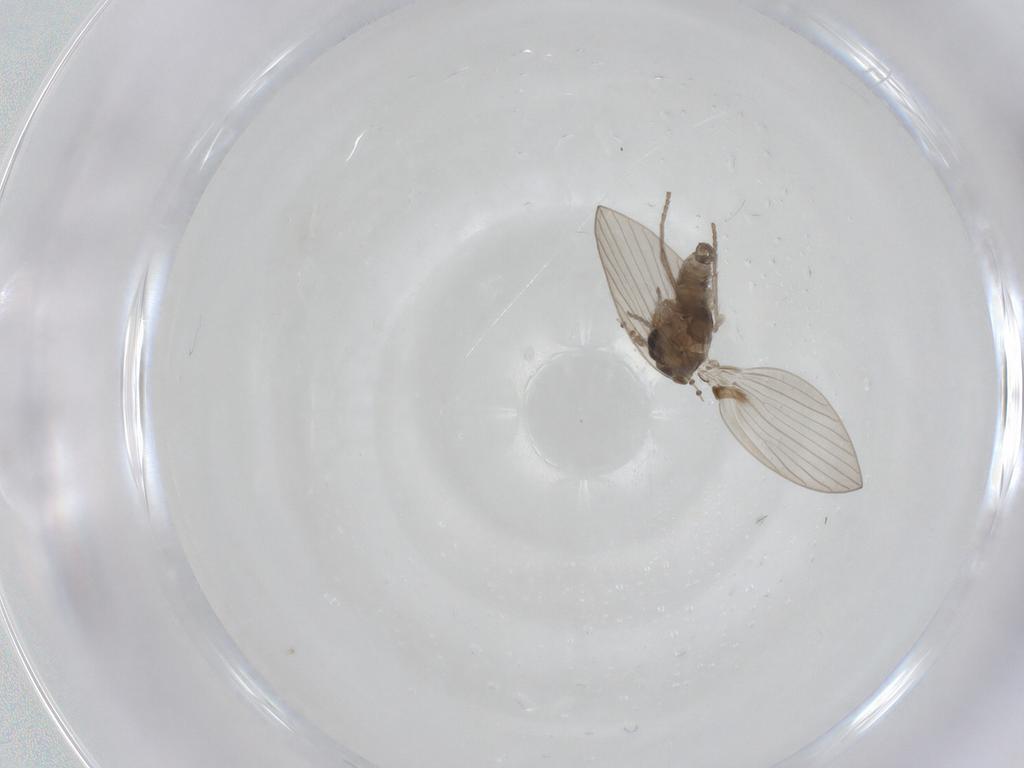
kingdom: Animalia
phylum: Arthropoda
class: Insecta
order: Diptera
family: Psychodidae
